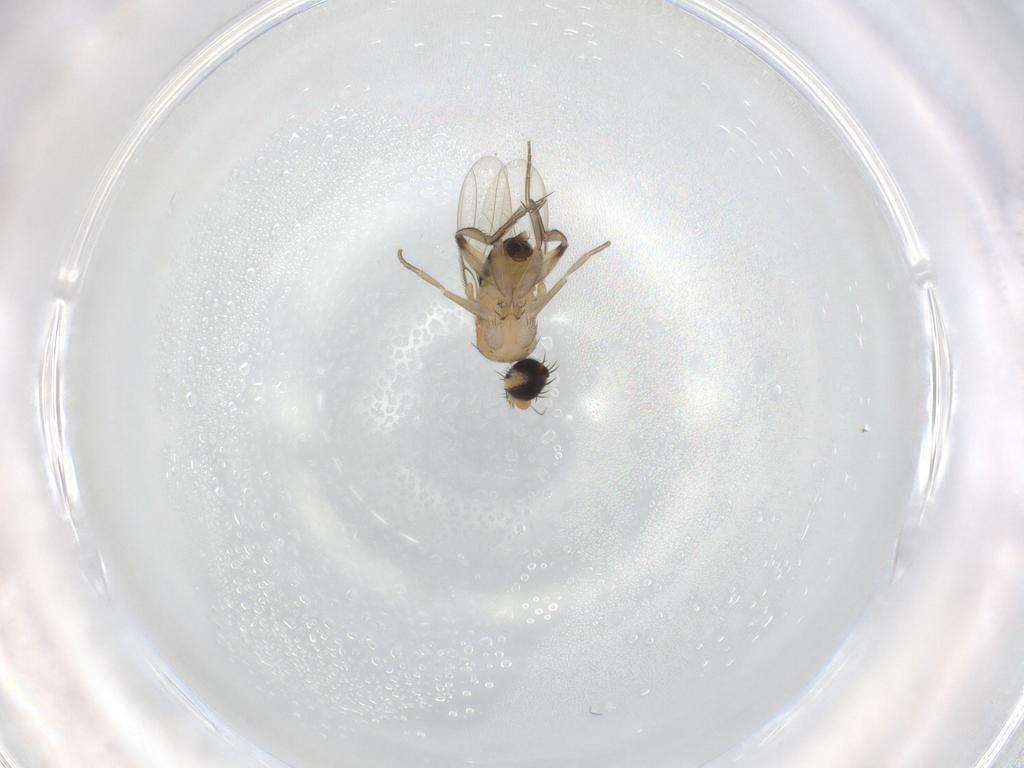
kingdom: Animalia
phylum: Arthropoda
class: Insecta
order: Diptera
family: Phoridae
